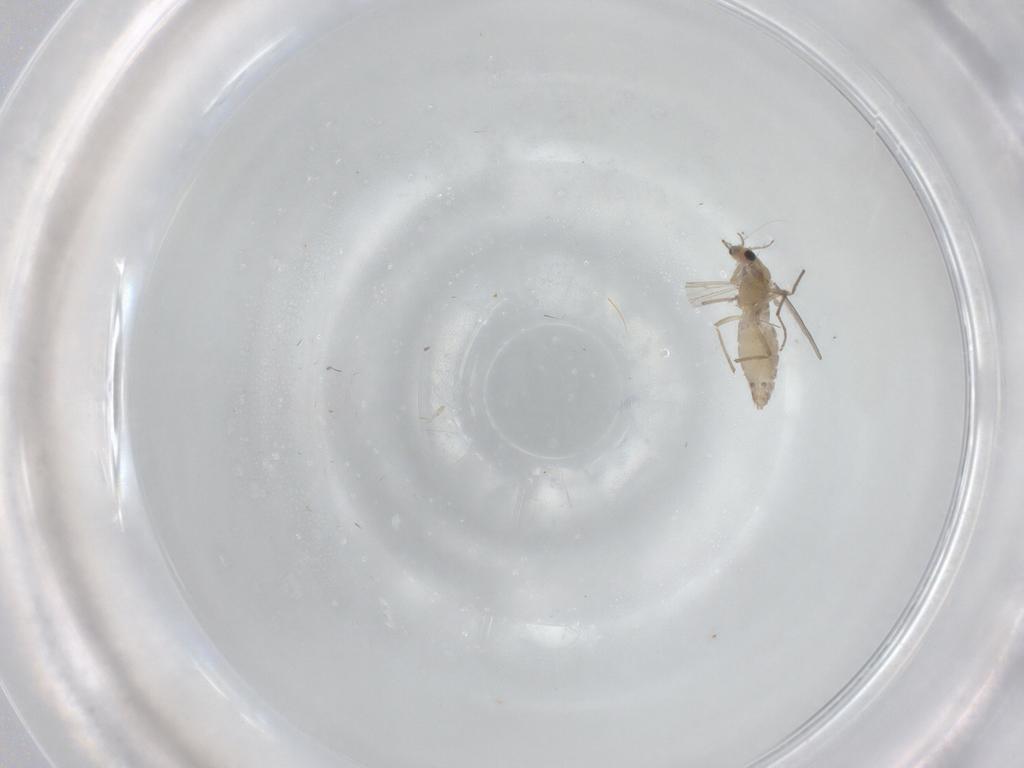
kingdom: Animalia
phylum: Arthropoda
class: Insecta
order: Diptera
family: Chironomidae
